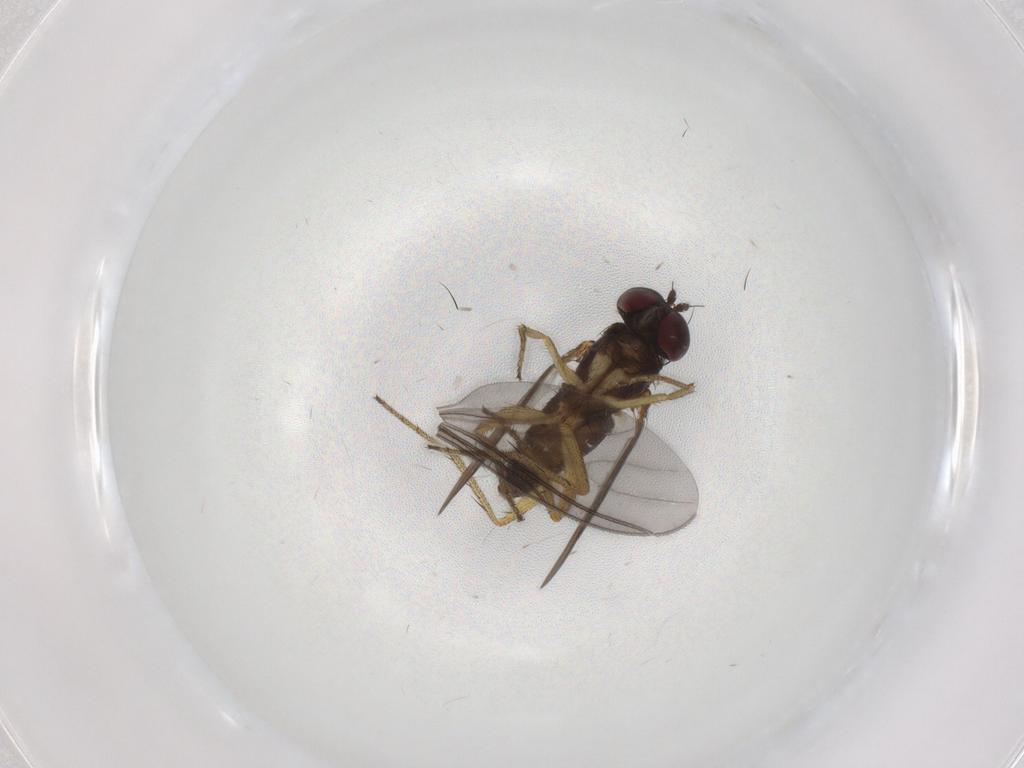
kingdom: Animalia
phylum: Arthropoda
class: Insecta
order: Diptera
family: Dolichopodidae
